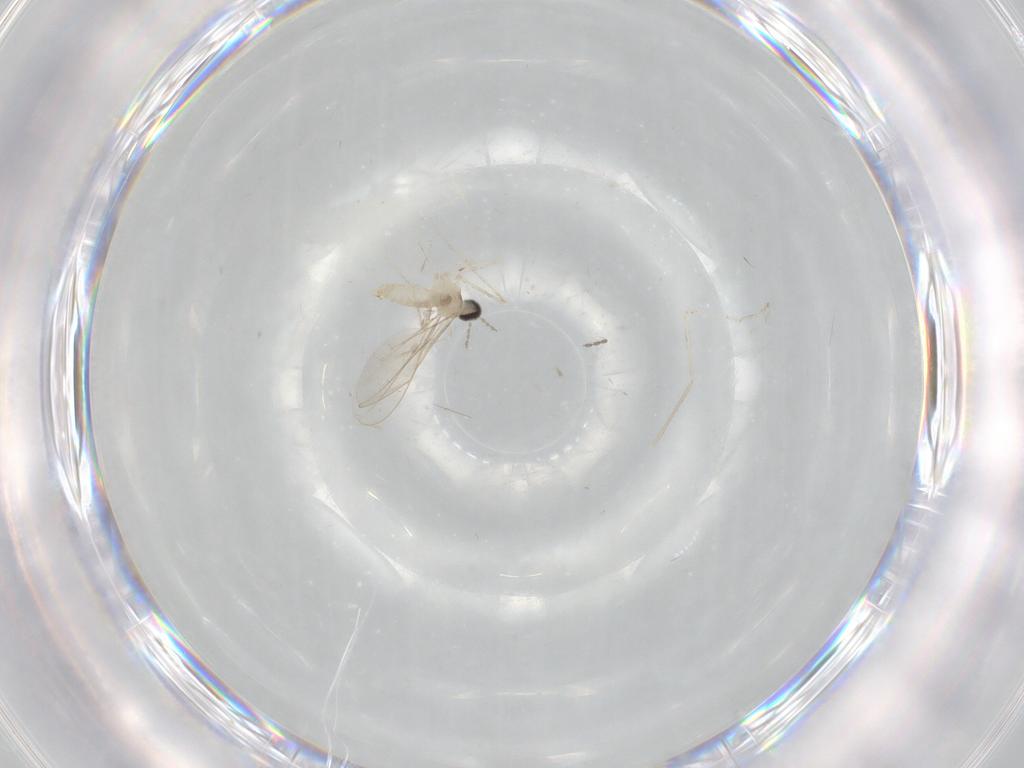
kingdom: Animalia
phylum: Arthropoda
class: Insecta
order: Diptera
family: Cecidomyiidae
